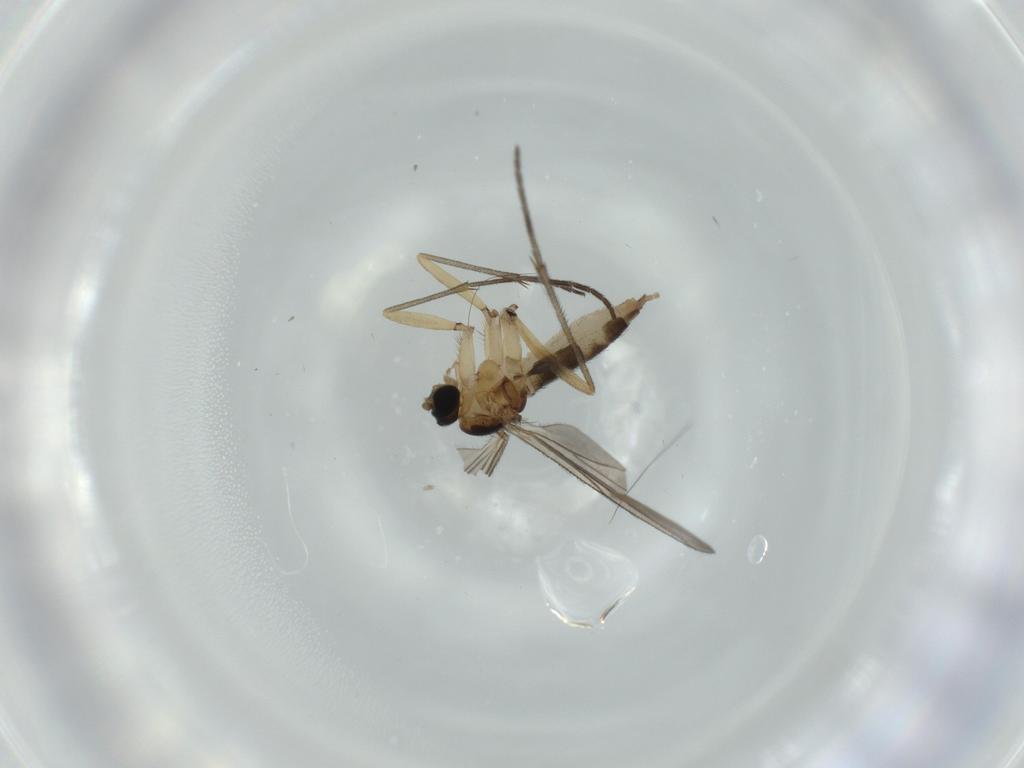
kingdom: Animalia
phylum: Arthropoda
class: Insecta
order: Diptera
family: Sciaridae
